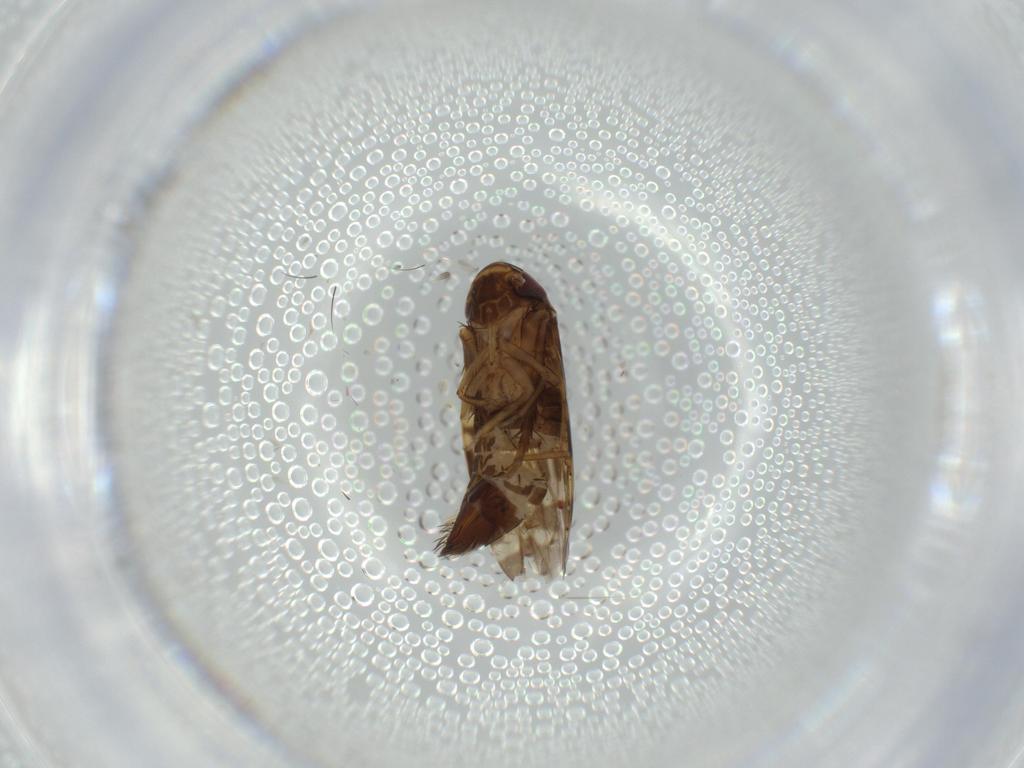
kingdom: Animalia
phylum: Arthropoda
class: Insecta
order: Hemiptera
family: Cicadellidae
